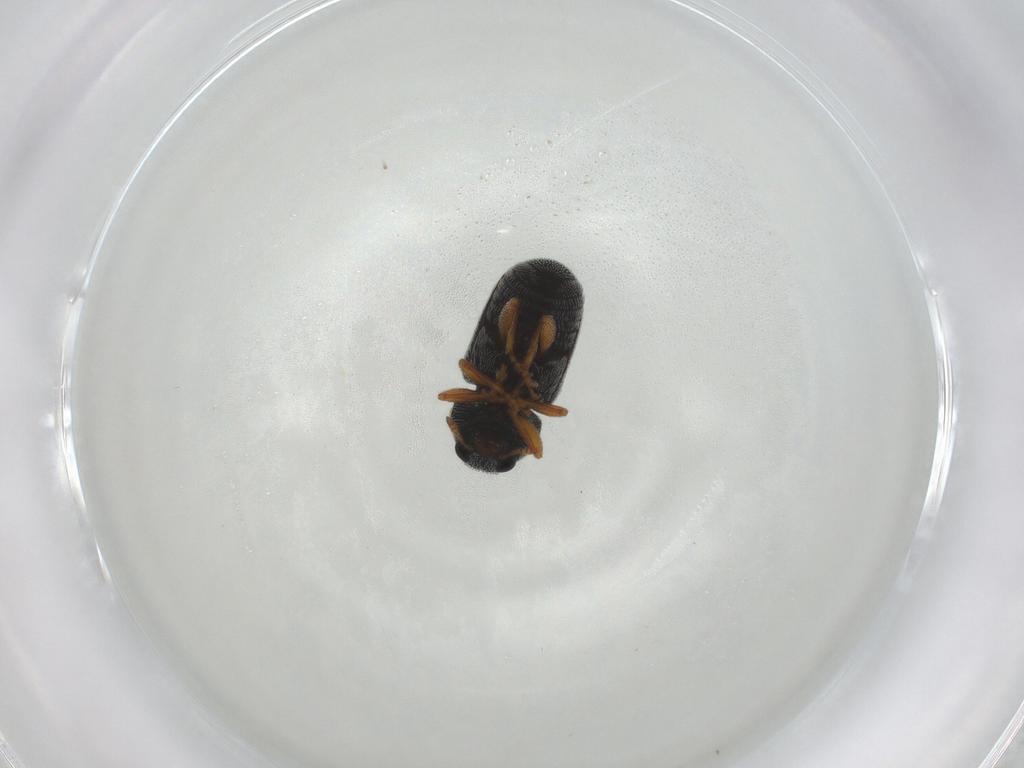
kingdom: Animalia
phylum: Arthropoda
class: Insecta
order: Coleoptera
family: Anthribidae
